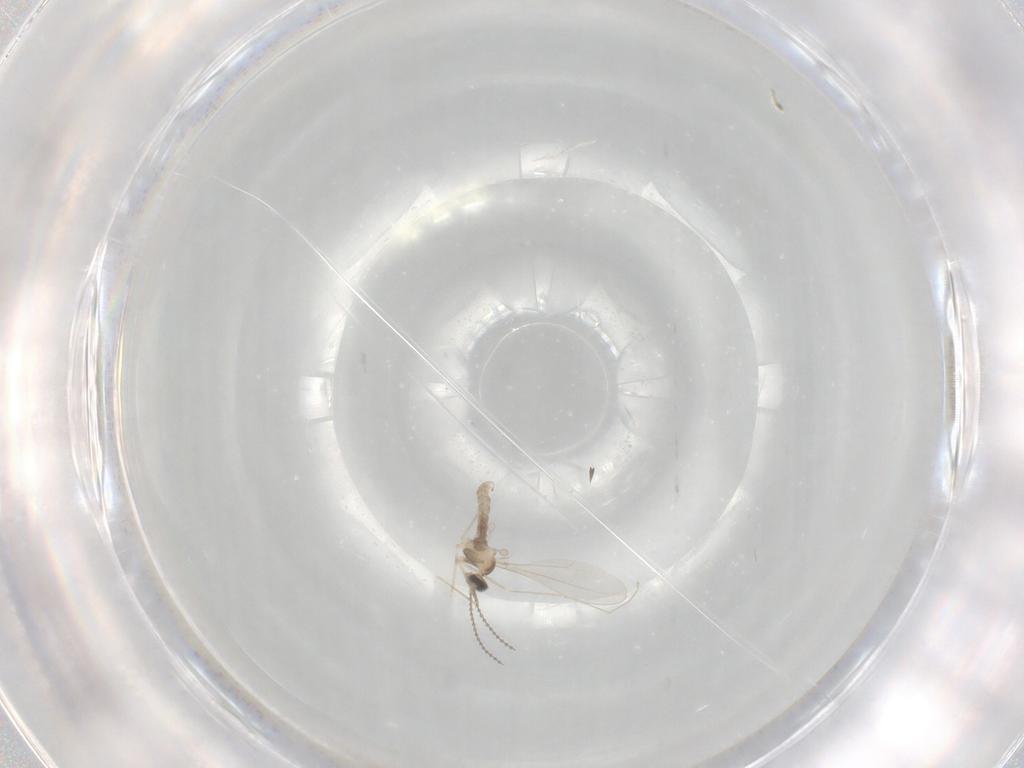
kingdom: Animalia
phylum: Arthropoda
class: Insecta
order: Diptera
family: Cecidomyiidae
